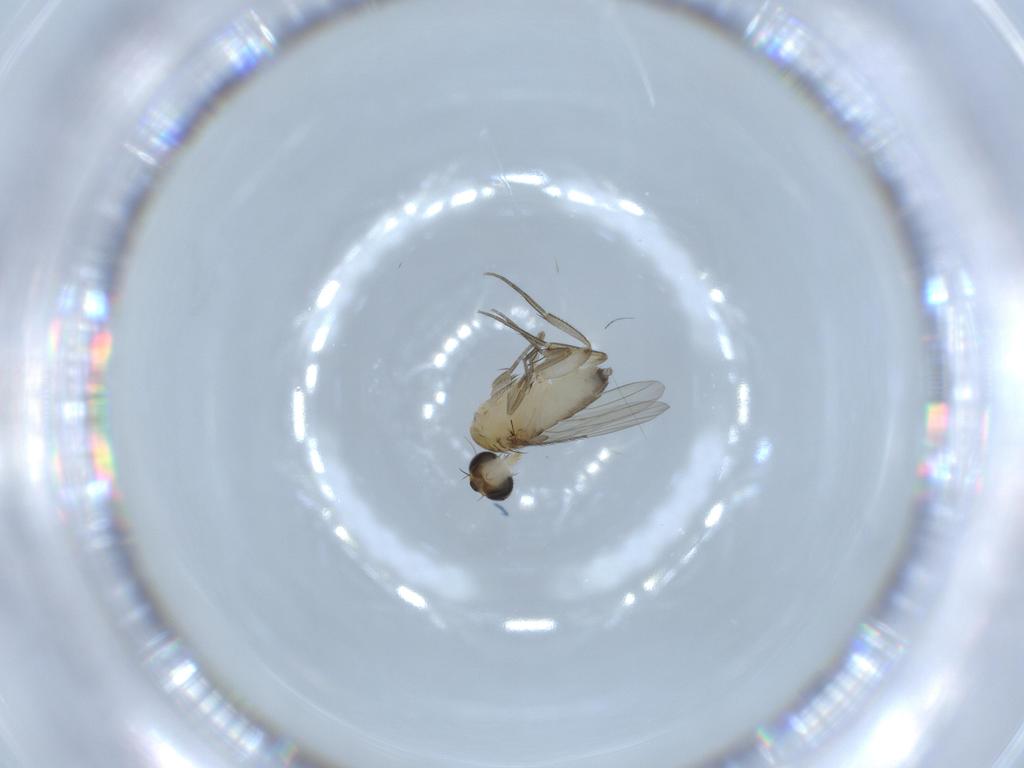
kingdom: Animalia
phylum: Arthropoda
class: Insecta
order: Diptera
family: Phoridae
